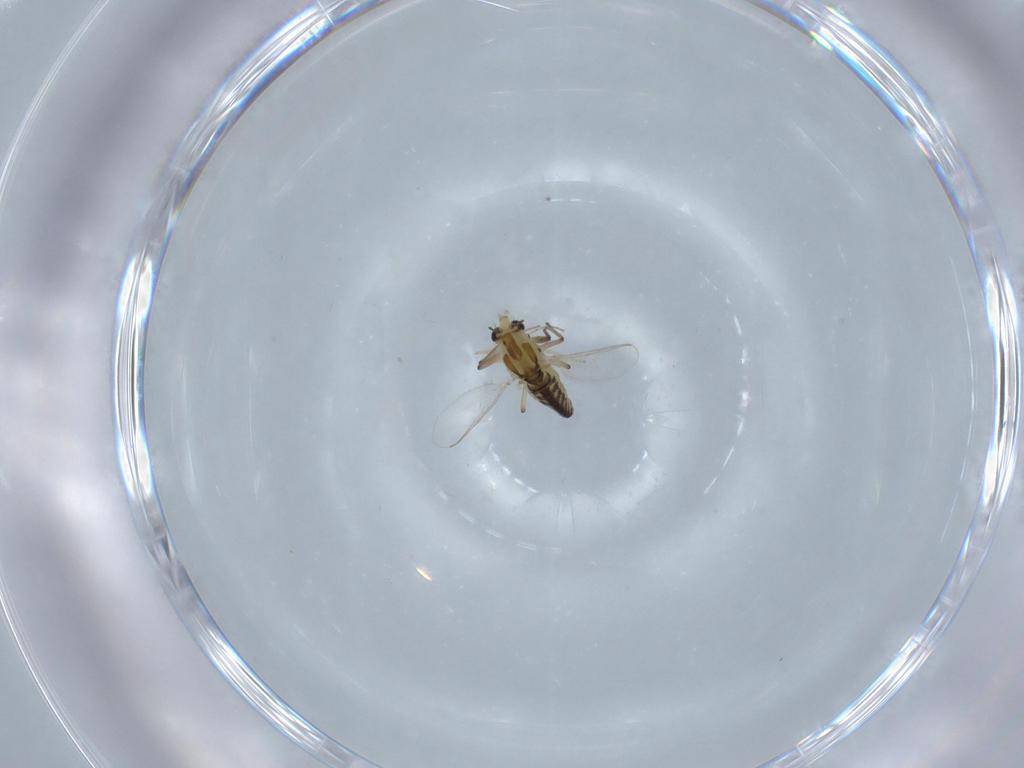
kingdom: Animalia
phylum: Arthropoda
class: Insecta
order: Diptera
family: Chironomidae
